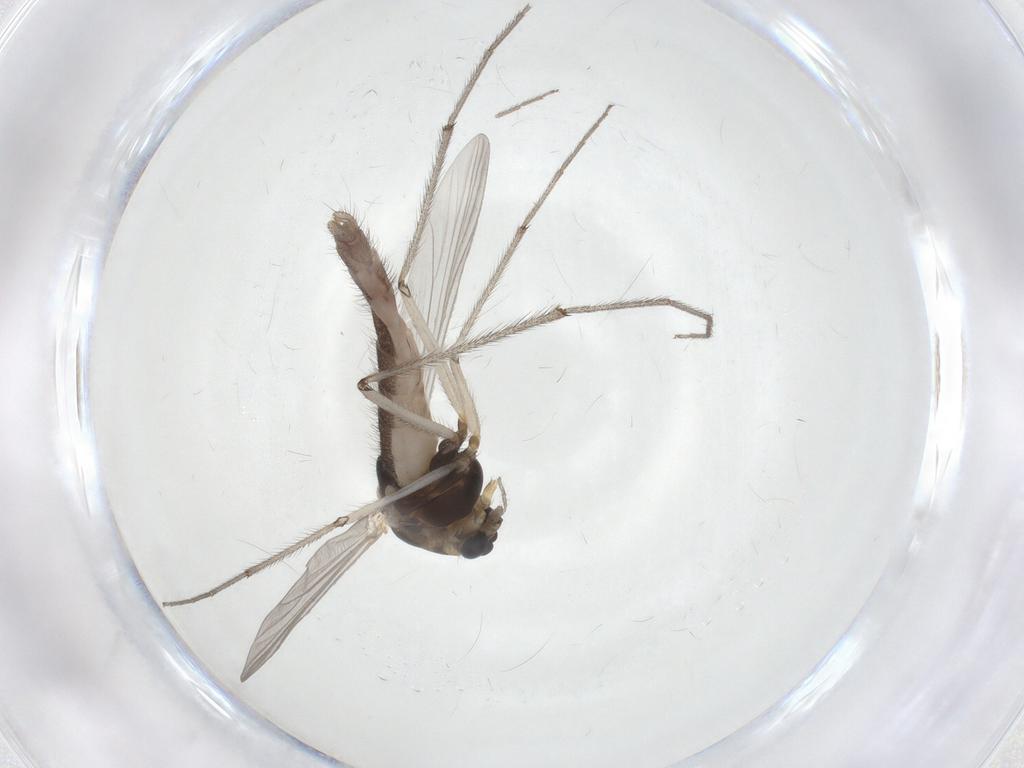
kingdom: Animalia
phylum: Arthropoda
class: Insecta
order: Diptera
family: Chironomidae
